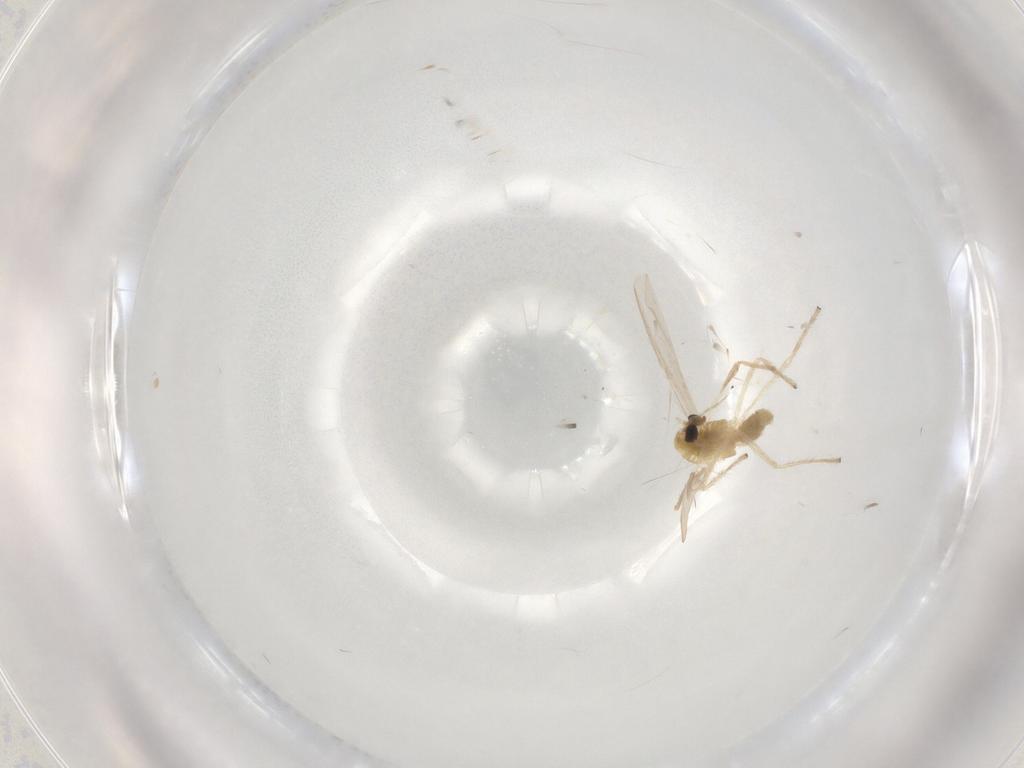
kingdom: Animalia
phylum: Arthropoda
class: Insecta
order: Diptera
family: Chironomidae
